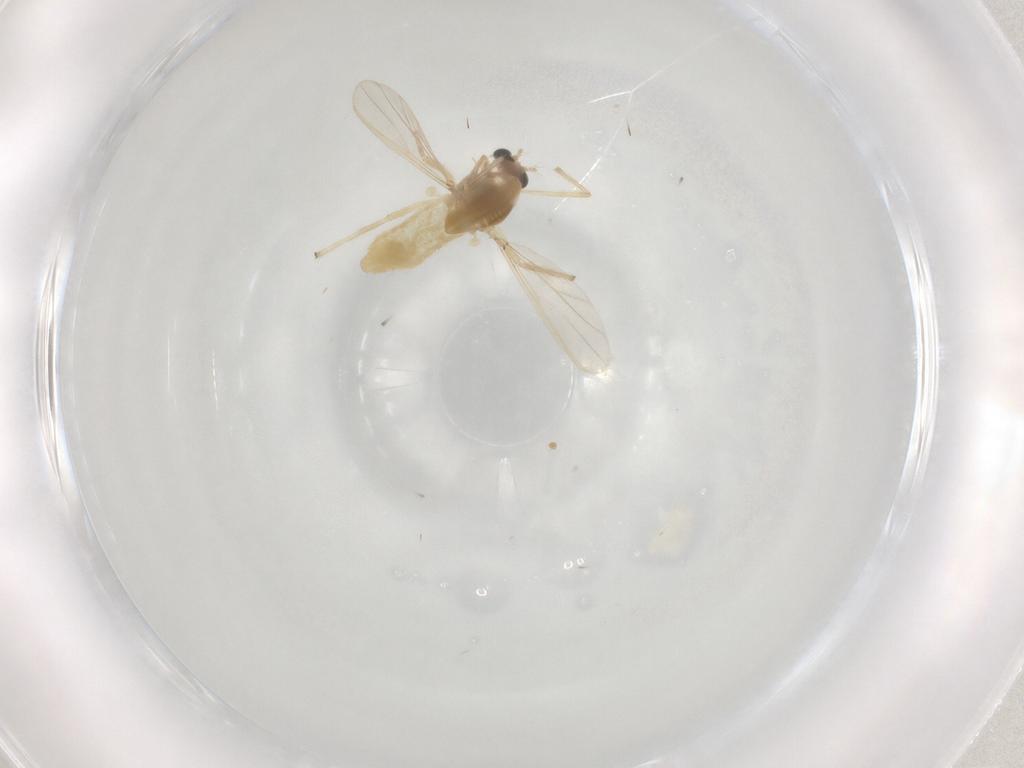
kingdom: Animalia
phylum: Arthropoda
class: Insecta
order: Diptera
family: Chironomidae
